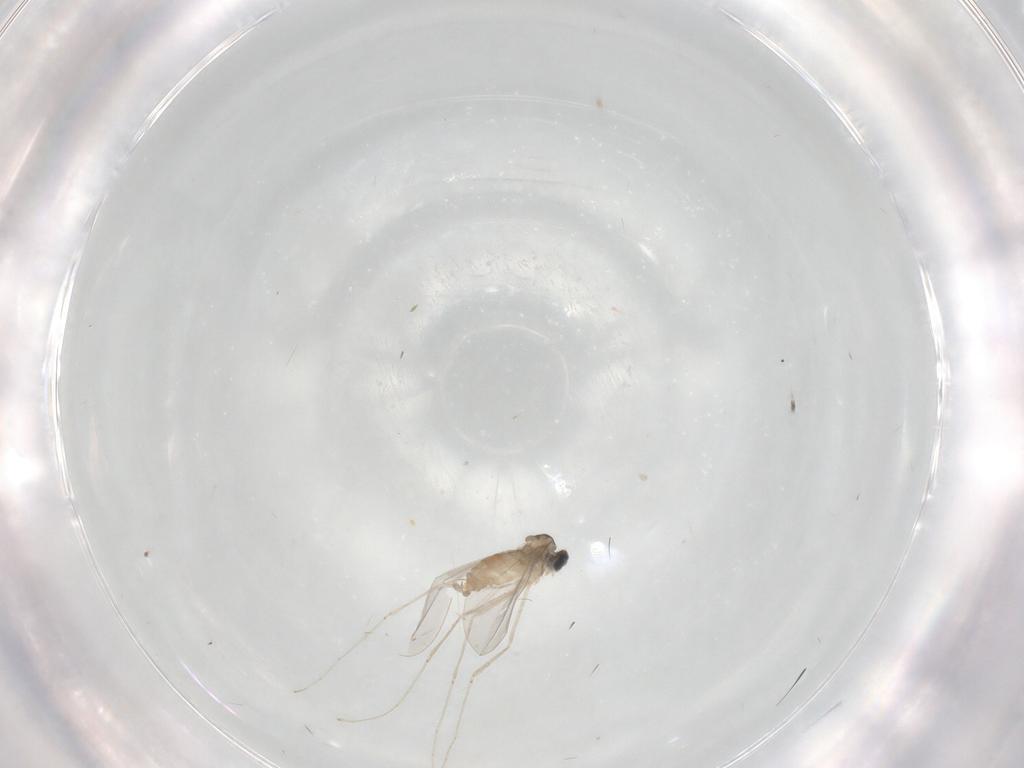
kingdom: Animalia
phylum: Arthropoda
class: Insecta
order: Diptera
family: Cecidomyiidae
